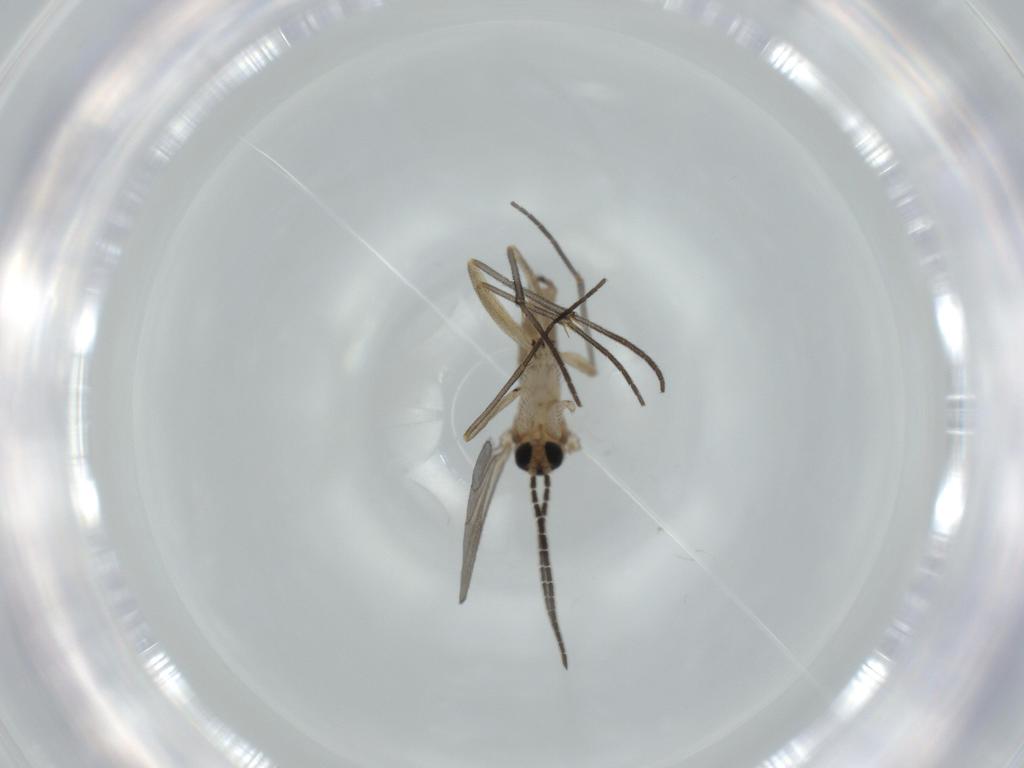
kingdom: Animalia
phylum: Arthropoda
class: Insecta
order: Diptera
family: Sciaridae
